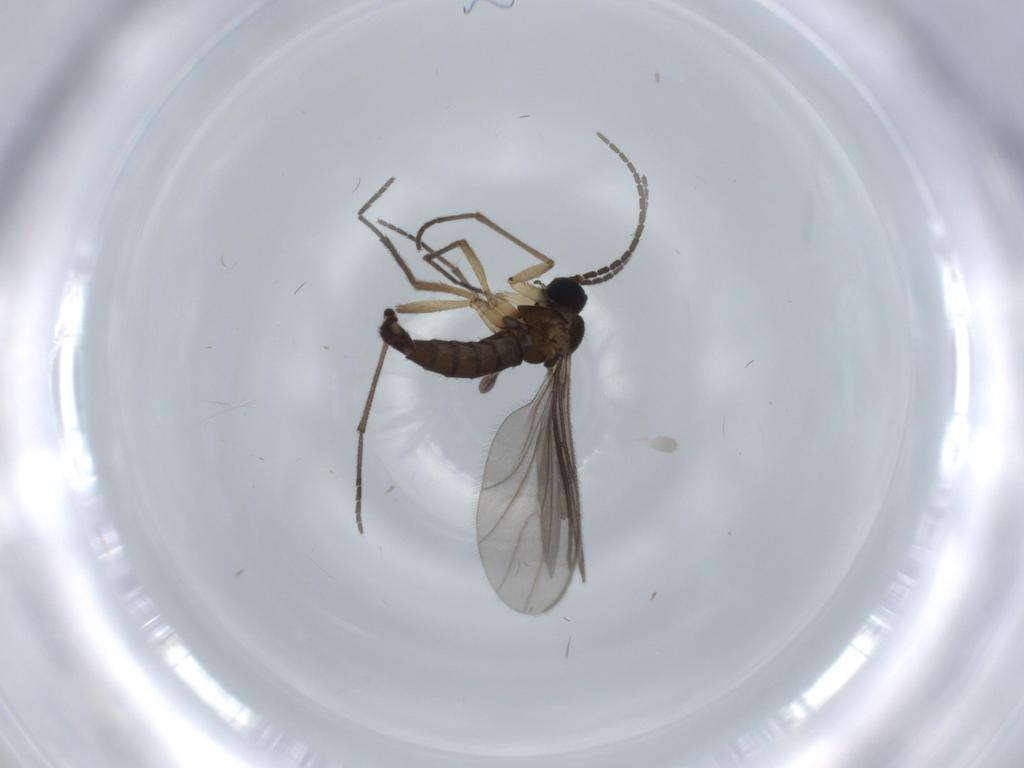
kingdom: Animalia
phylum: Arthropoda
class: Insecta
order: Diptera
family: Sciaridae
